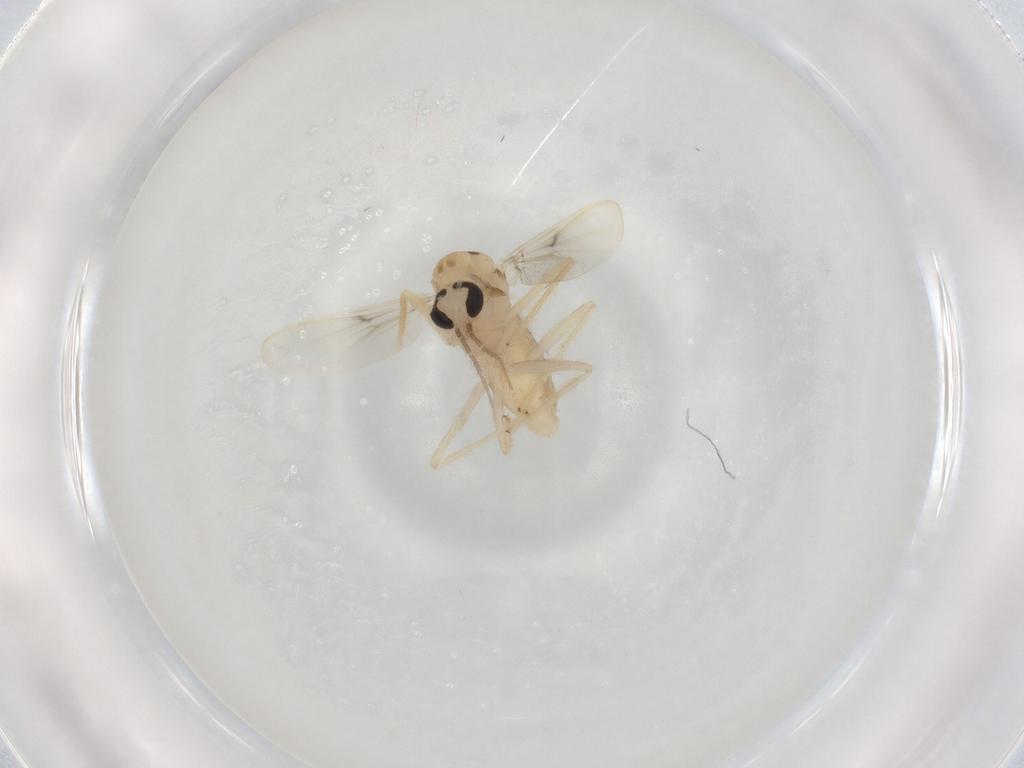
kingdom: Animalia
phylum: Arthropoda
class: Insecta
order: Diptera
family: Chironomidae
